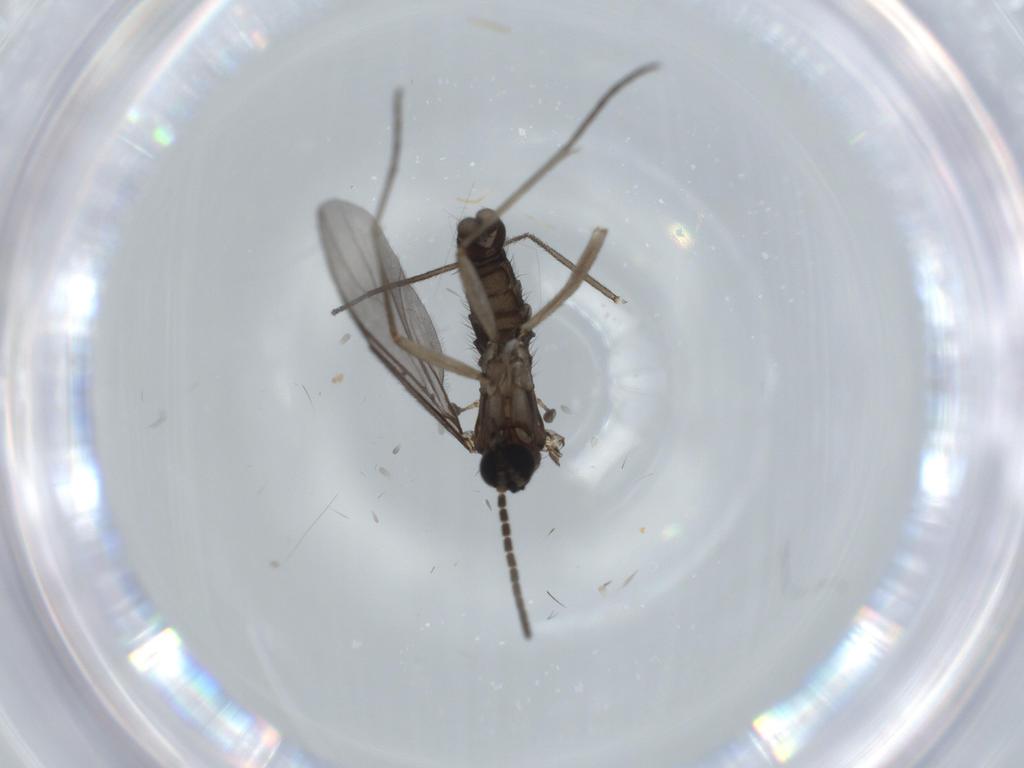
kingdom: Animalia
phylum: Arthropoda
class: Insecta
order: Diptera
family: Sciaridae
